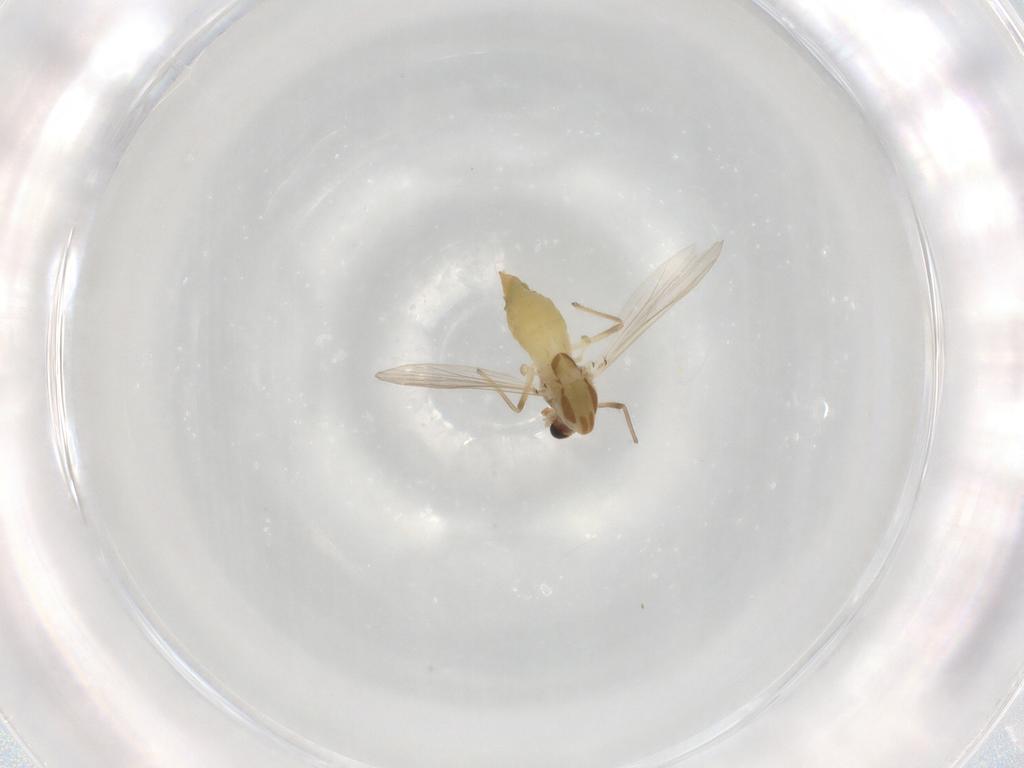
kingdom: Animalia
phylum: Arthropoda
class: Insecta
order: Diptera
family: Chironomidae
